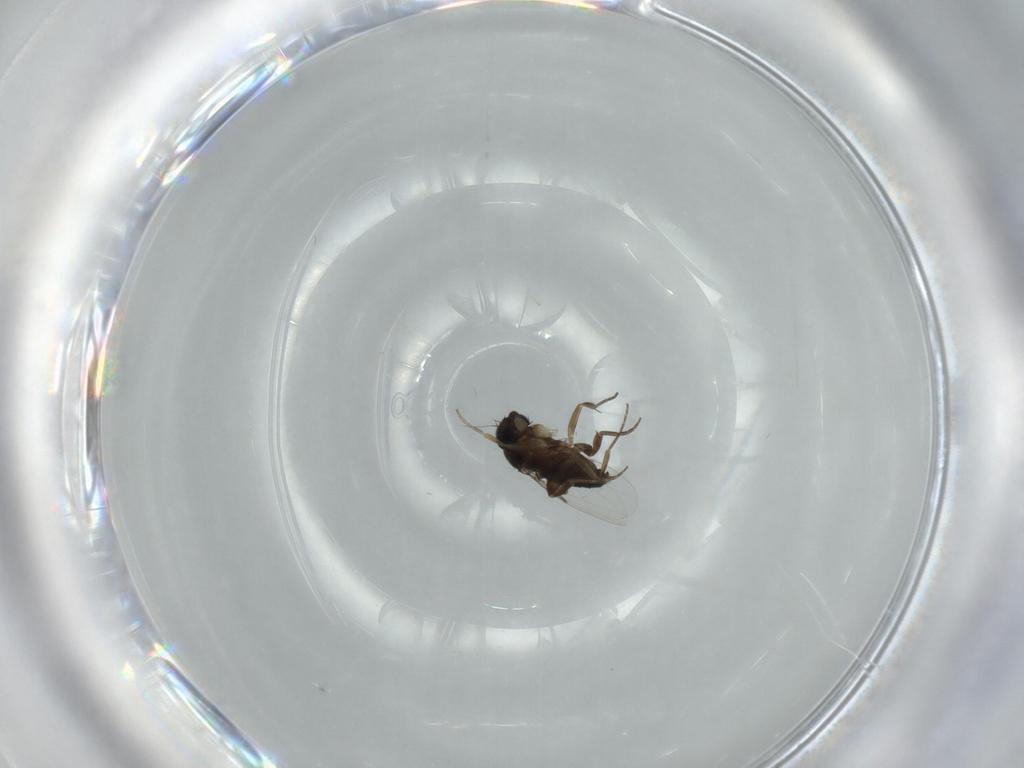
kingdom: Animalia
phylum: Arthropoda
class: Insecta
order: Diptera
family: Phoridae
